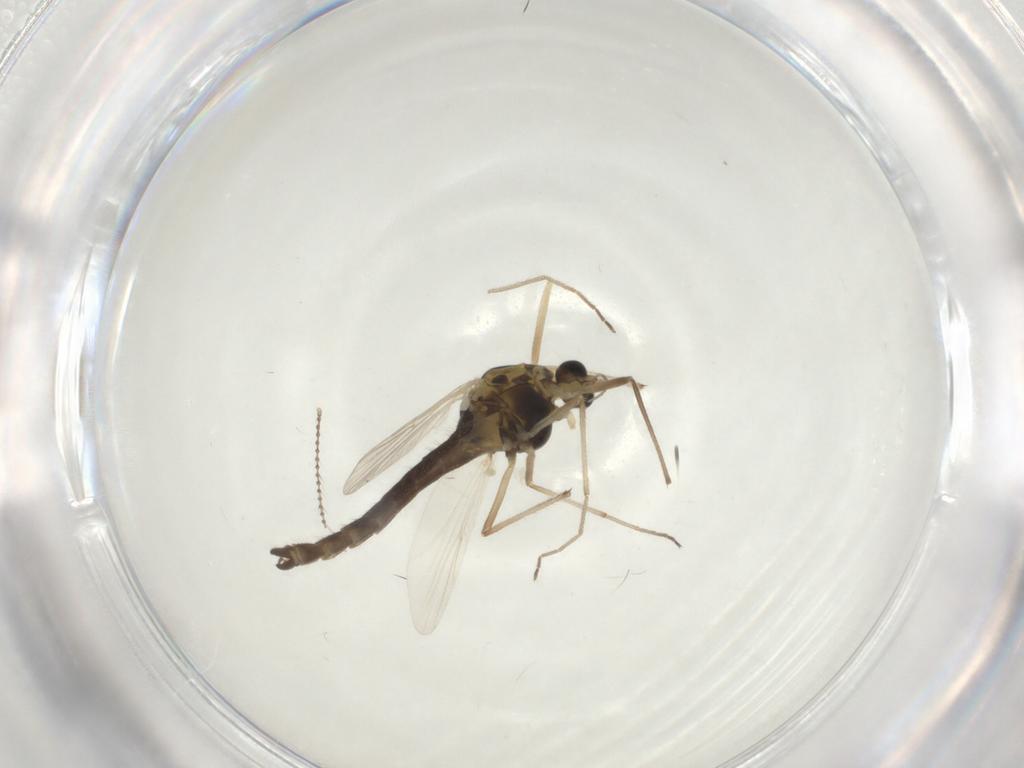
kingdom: Animalia
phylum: Arthropoda
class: Insecta
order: Diptera
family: Chironomidae
